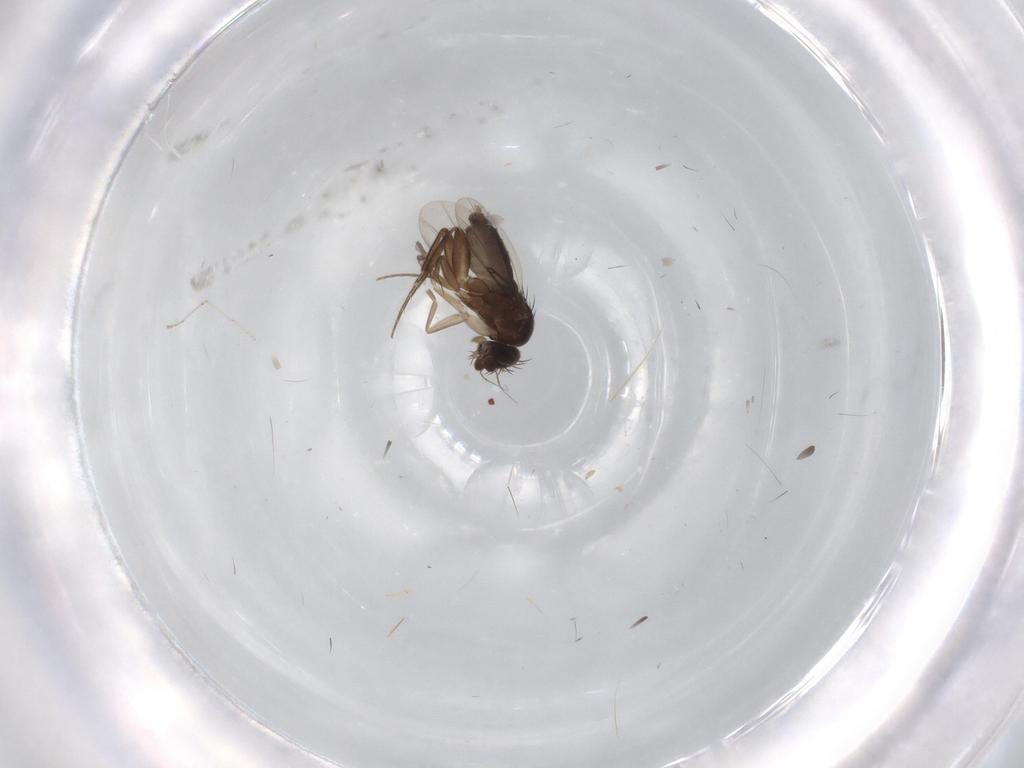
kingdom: Animalia
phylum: Arthropoda
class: Insecta
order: Diptera
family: Phoridae
